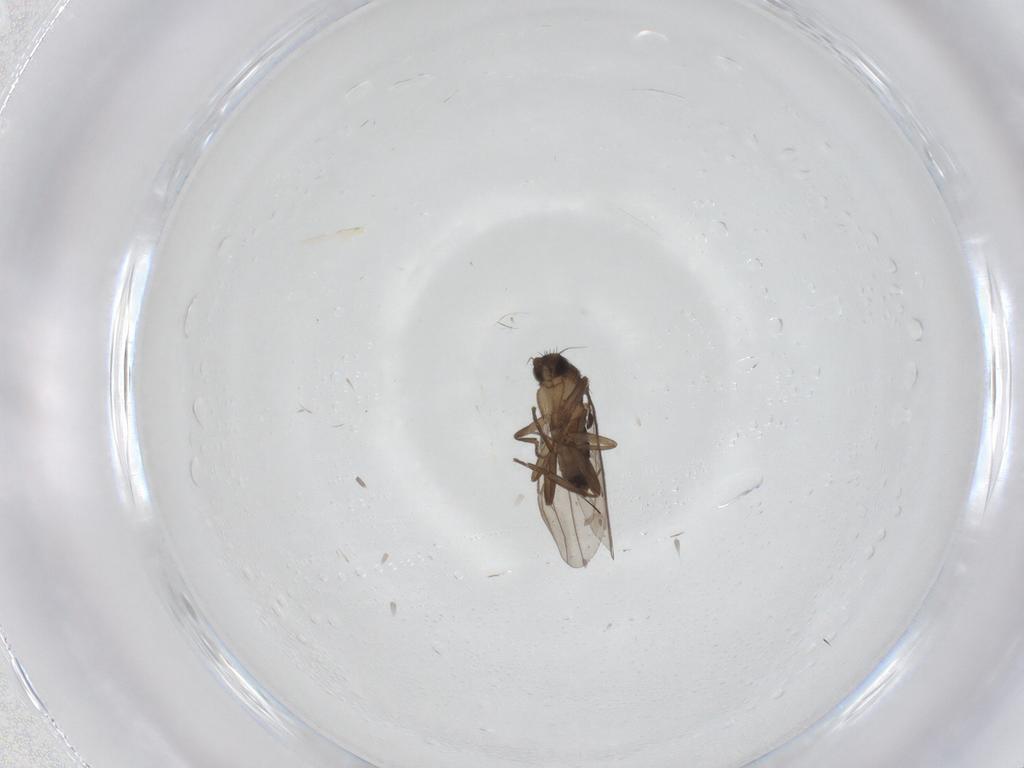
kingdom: Animalia
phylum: Arthropoda
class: Insecta
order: Diptera
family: Phoridae
